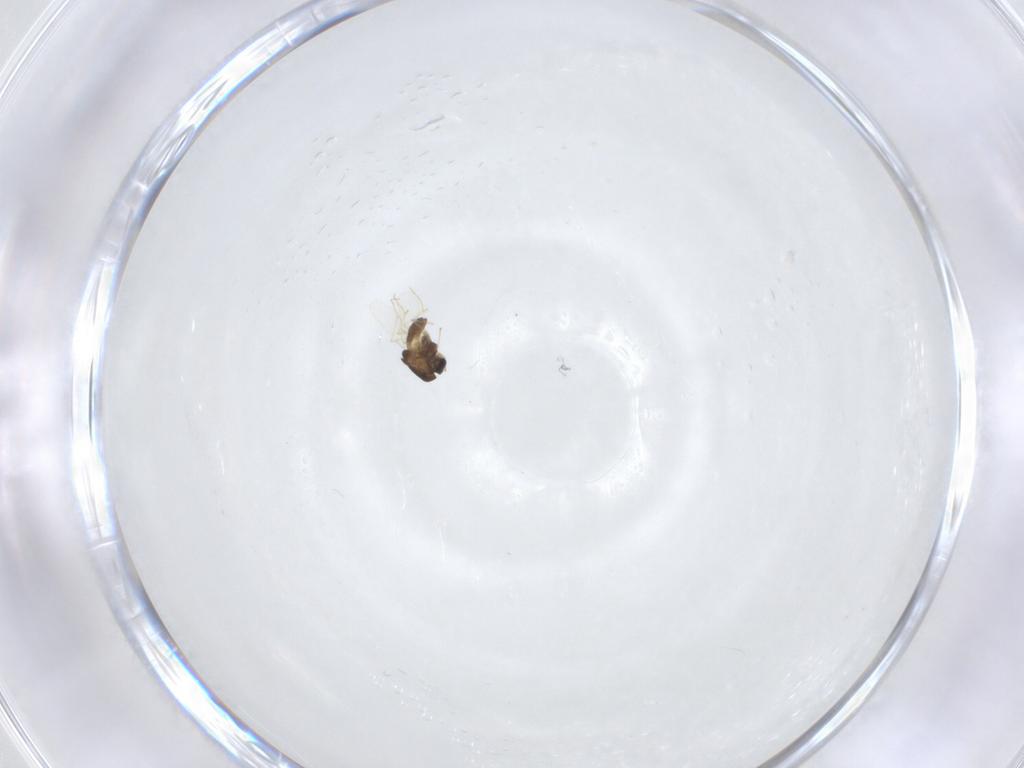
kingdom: Animalia
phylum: Arthropoda
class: Insecta
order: Diptera
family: Chironomidae
